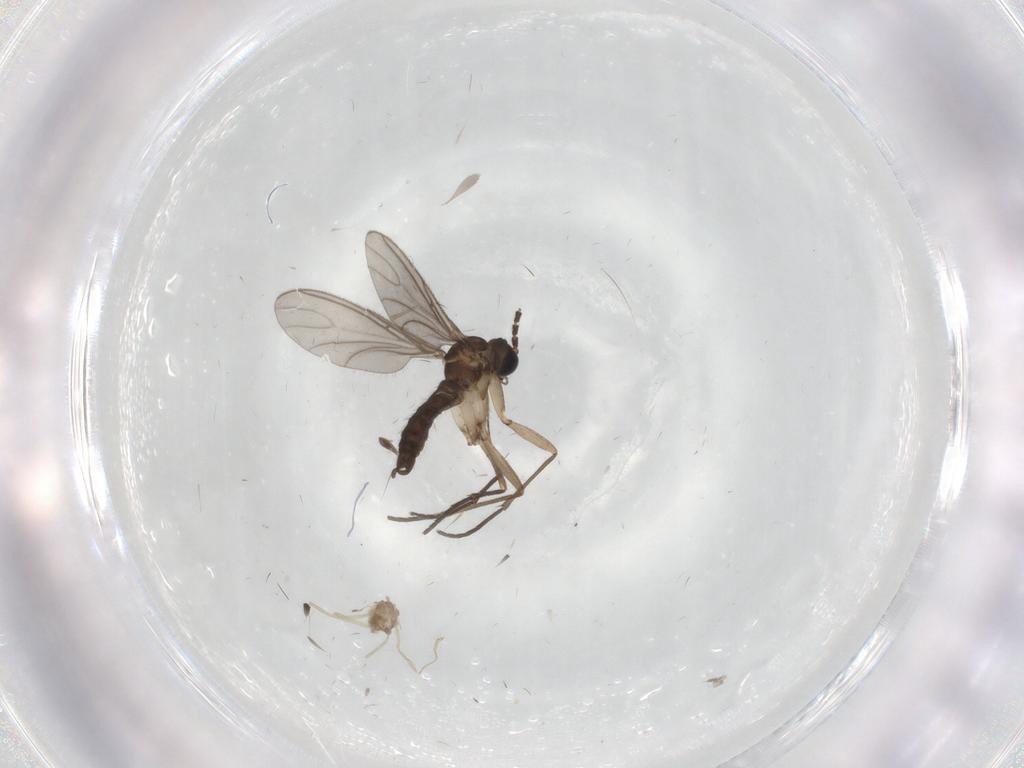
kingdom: Animalia
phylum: Arthropoda
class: Insecta
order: Diptera
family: Sciaridae
